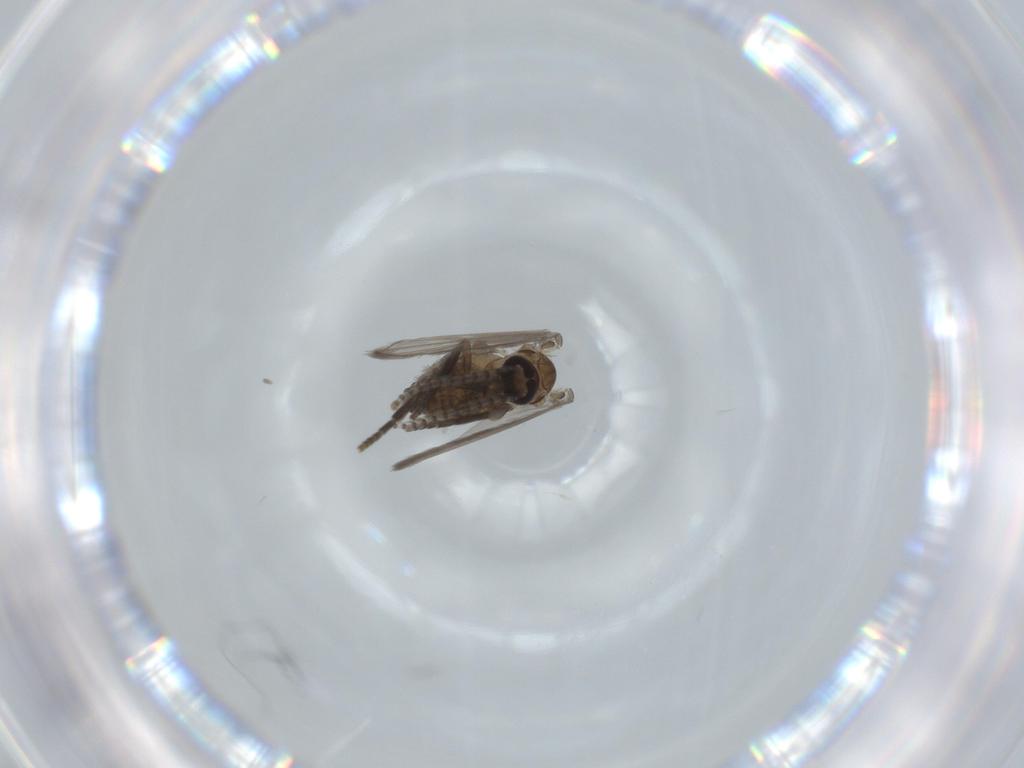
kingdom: Animalia
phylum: Arthropoda
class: Insecta
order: Diptera
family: Psychodidae
